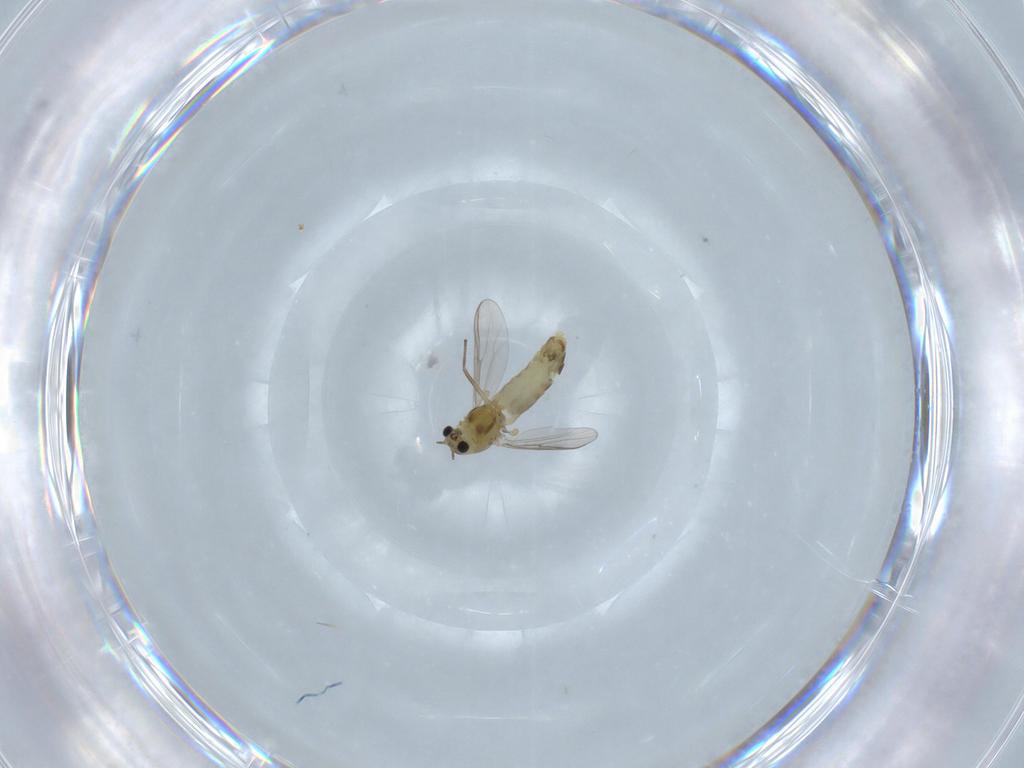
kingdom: Animalia
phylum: Arthropoda
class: Insecta
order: Diptera
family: Chironomidae
